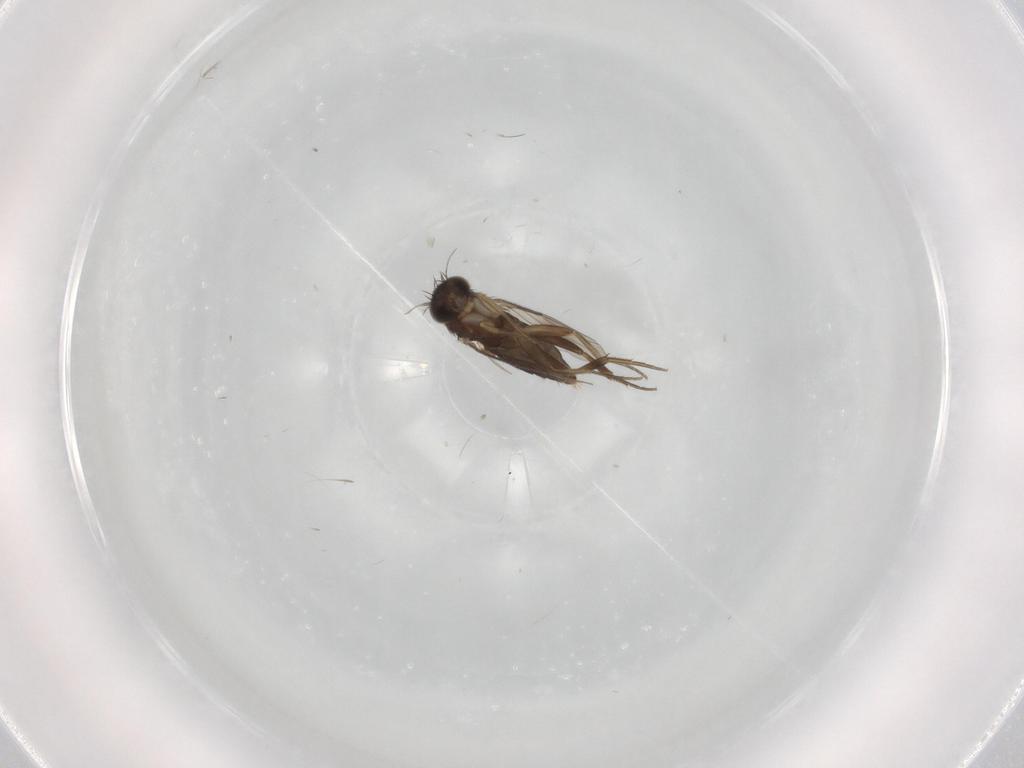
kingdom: Animalia
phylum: Arthropoda
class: Insecta
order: Diptera
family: Phoridae
